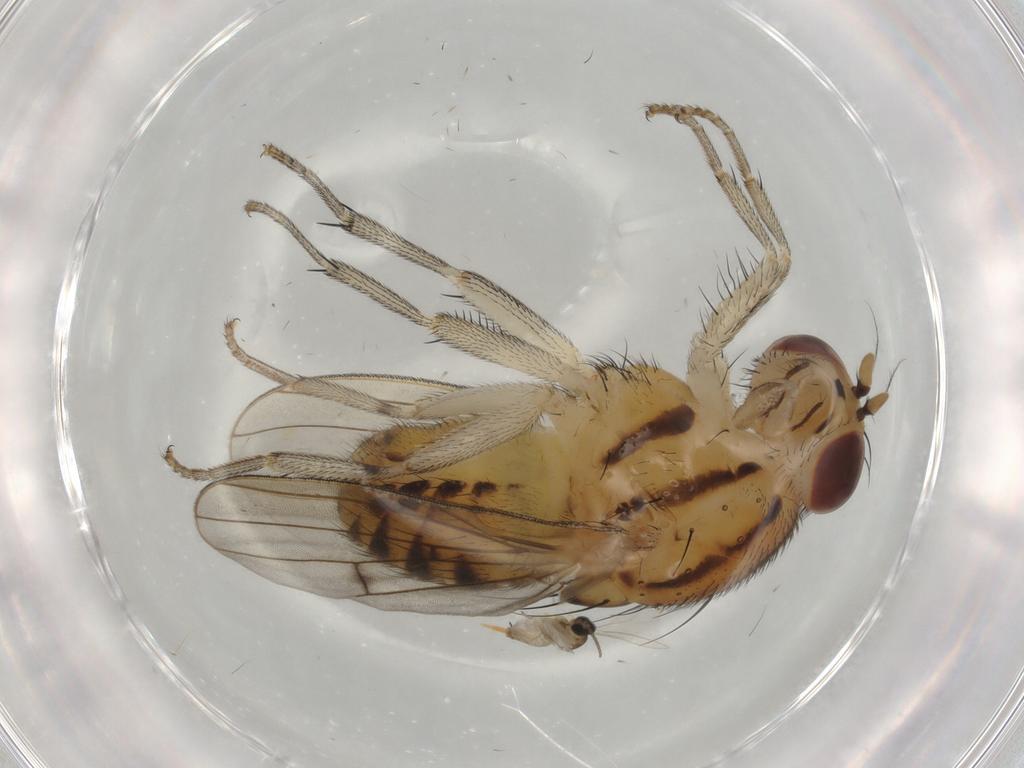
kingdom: Animalia
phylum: Arthropoda
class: Insecta
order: Diptera
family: Lauxaniidae
